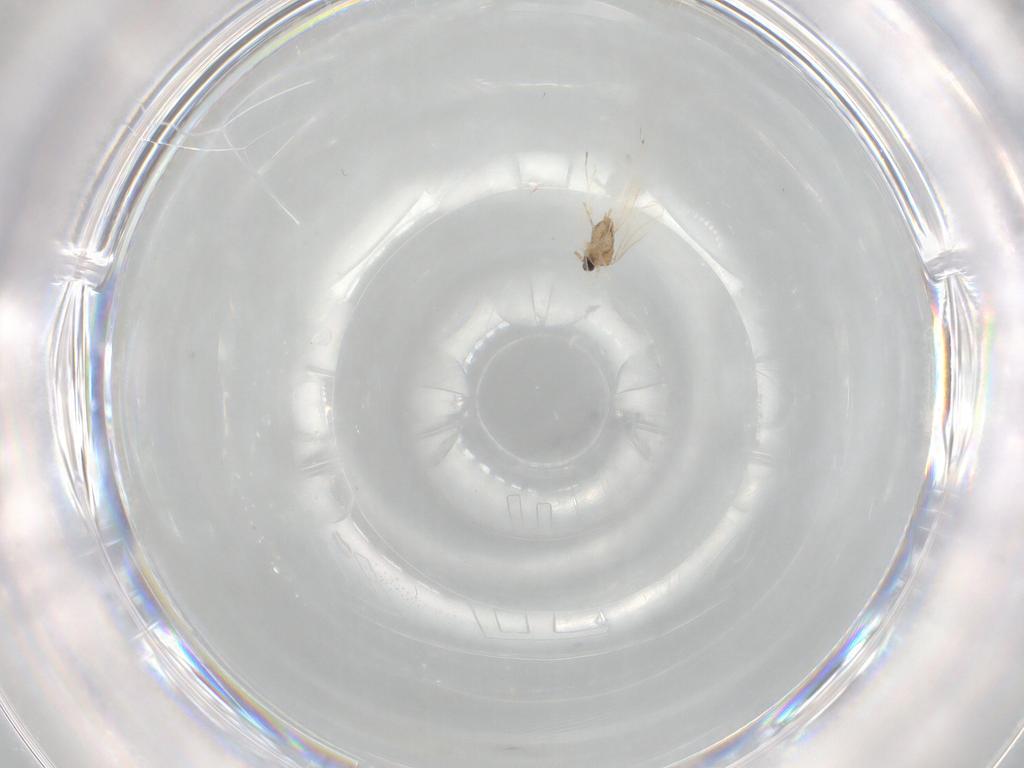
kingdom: Animalia
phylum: Arthropoda
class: Insecta
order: Diptera
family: Cecidomyiidae
